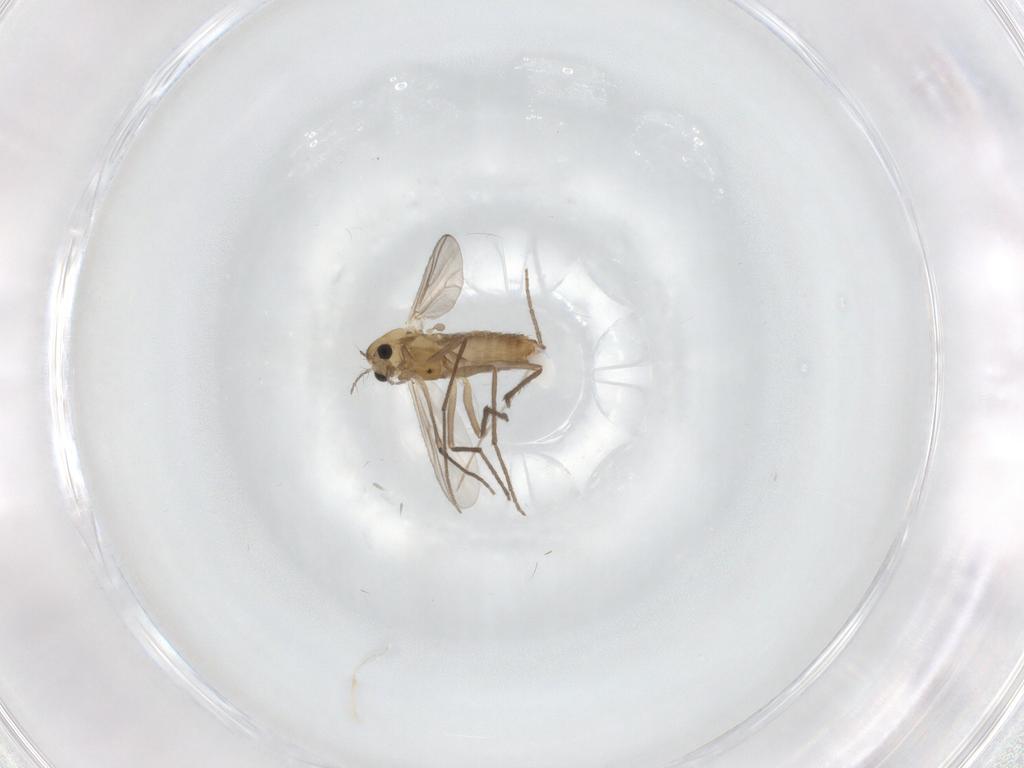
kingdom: Animalia
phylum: Arthropoda
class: Insecta
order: Diptera
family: Chironomidae
